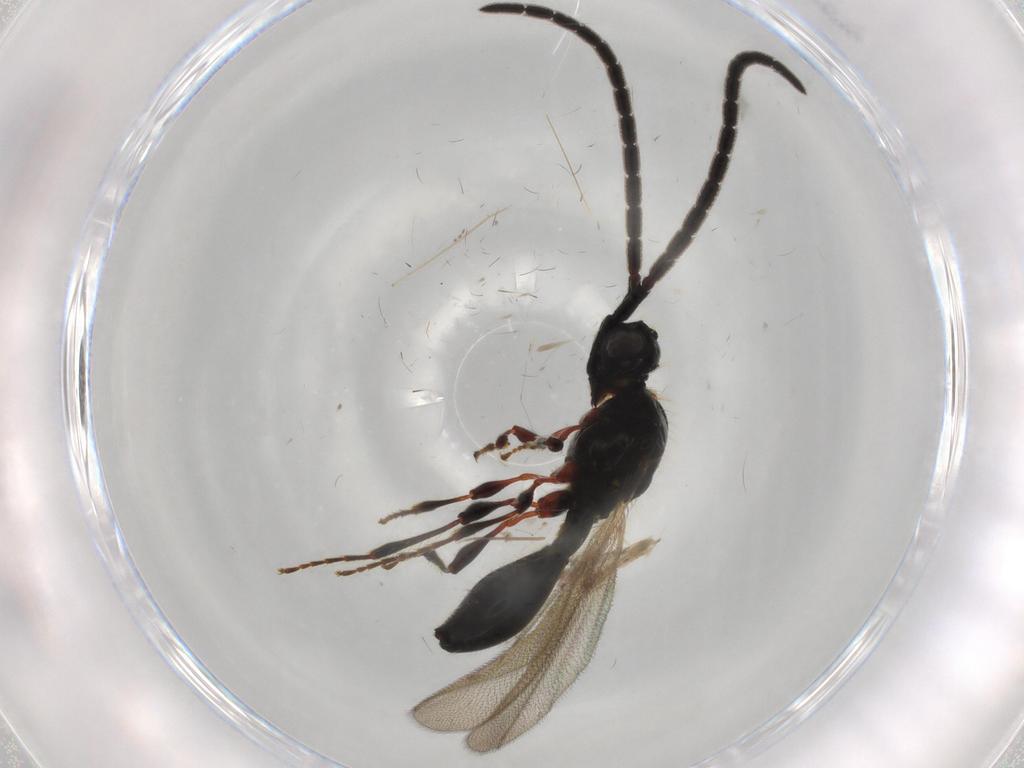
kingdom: Animalia
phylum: Arthropoda
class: Insecta
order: Hymenoptera
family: Diapriidae
